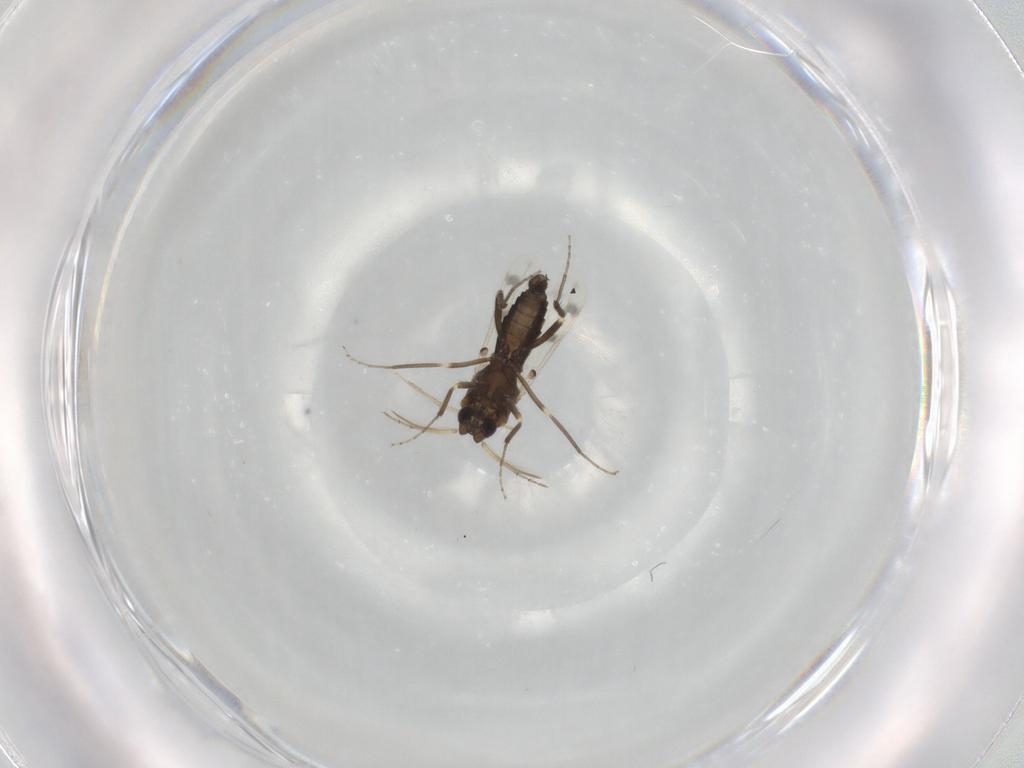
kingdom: Animalia
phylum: Arthropoda
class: Insecta
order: Diptera
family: Ceratopogonidae
